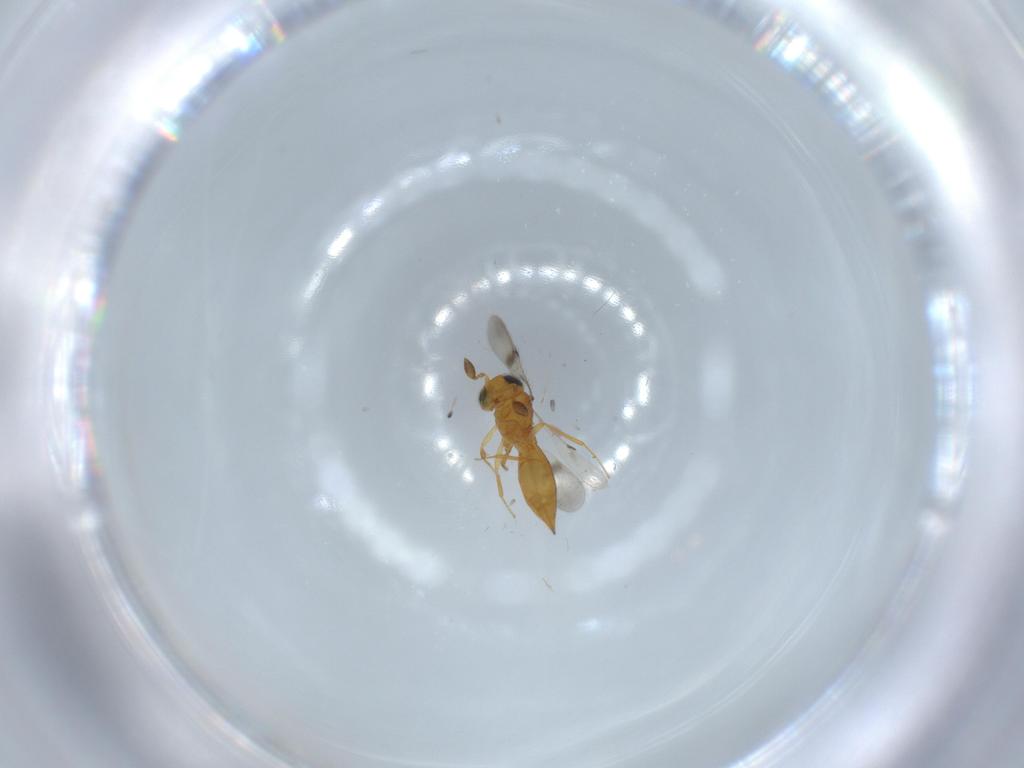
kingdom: Animalia
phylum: Arthropoda
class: Insecta
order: Hymenoptera
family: Scelionidae
